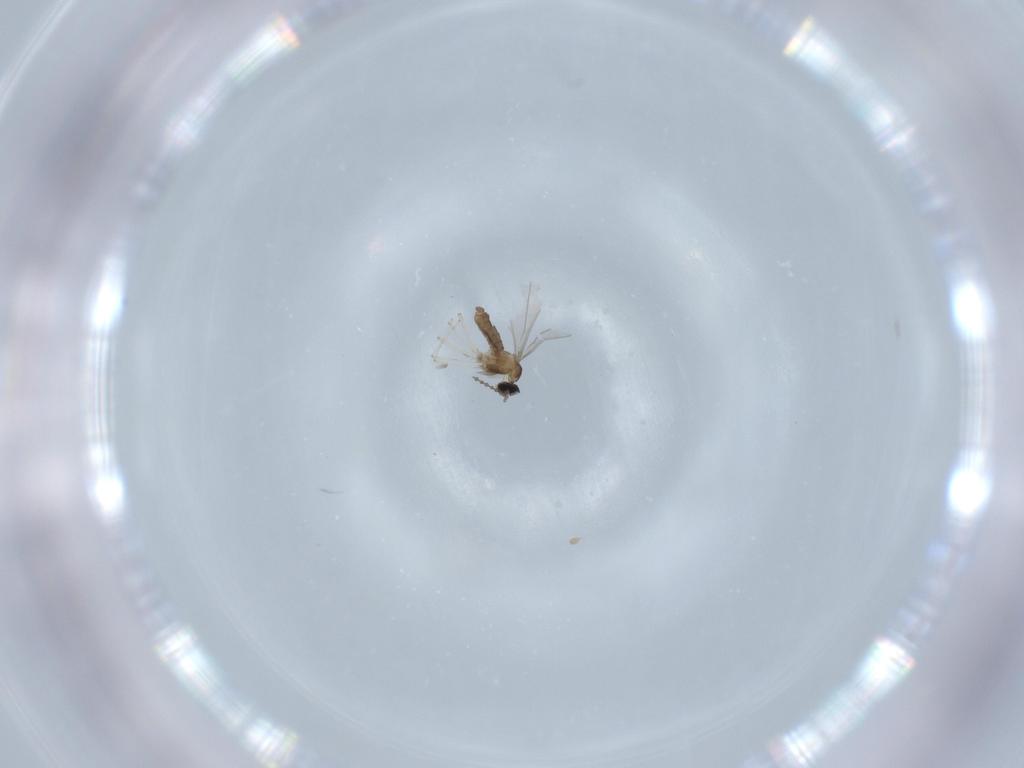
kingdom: Animalia
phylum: Arthropoda
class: Insecta
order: Diptera
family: Cecidomyiidae
